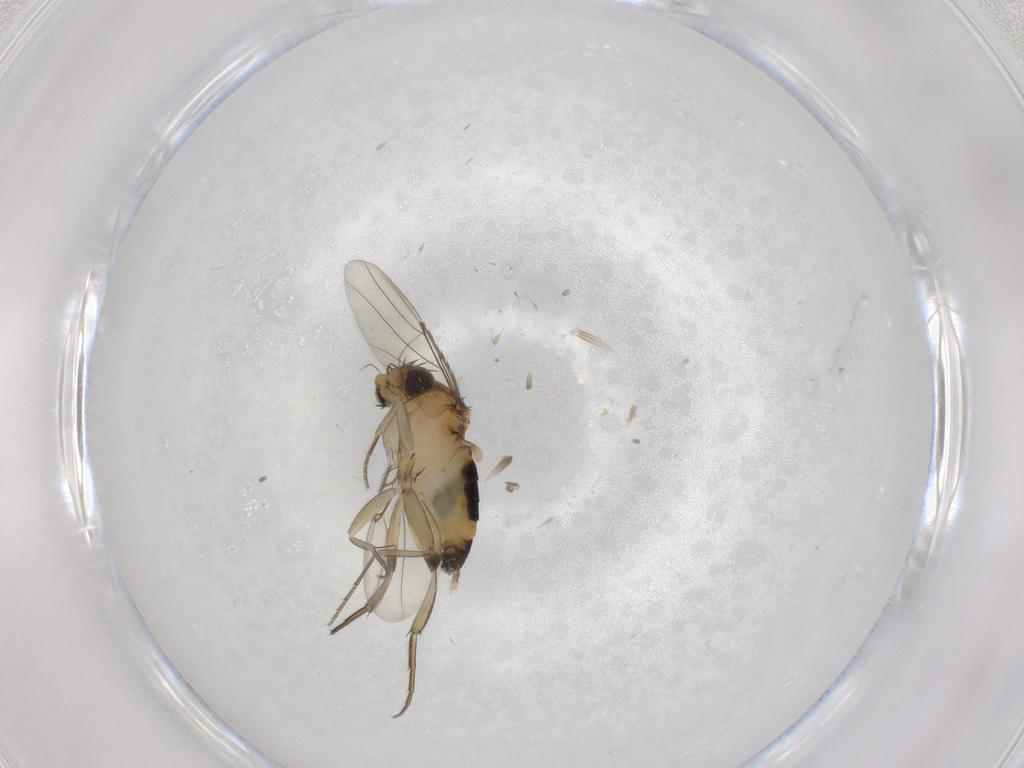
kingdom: Animalia
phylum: Arthropoda
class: Insecta
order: Diptera
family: Phoridae
